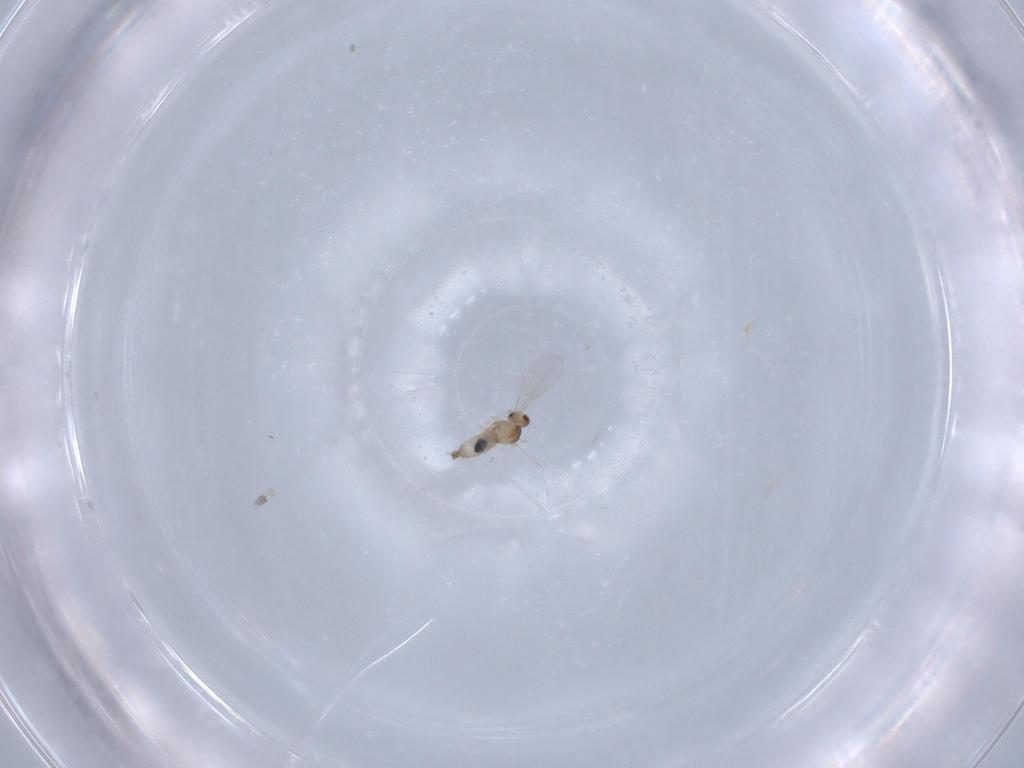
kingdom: Animalia
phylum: Arthropoda
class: Insecta
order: Diptera
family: Cecidomyiidae
